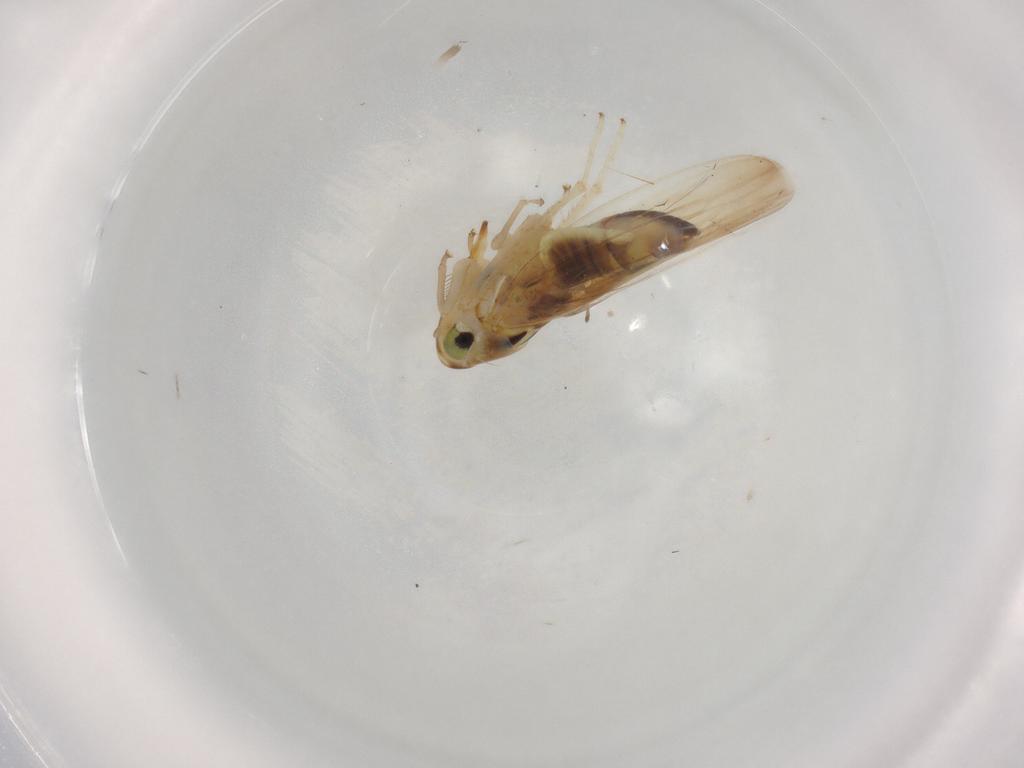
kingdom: Animalia
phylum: Arthropoda
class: Insecta
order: Hemiptera
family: Cicadellidae
